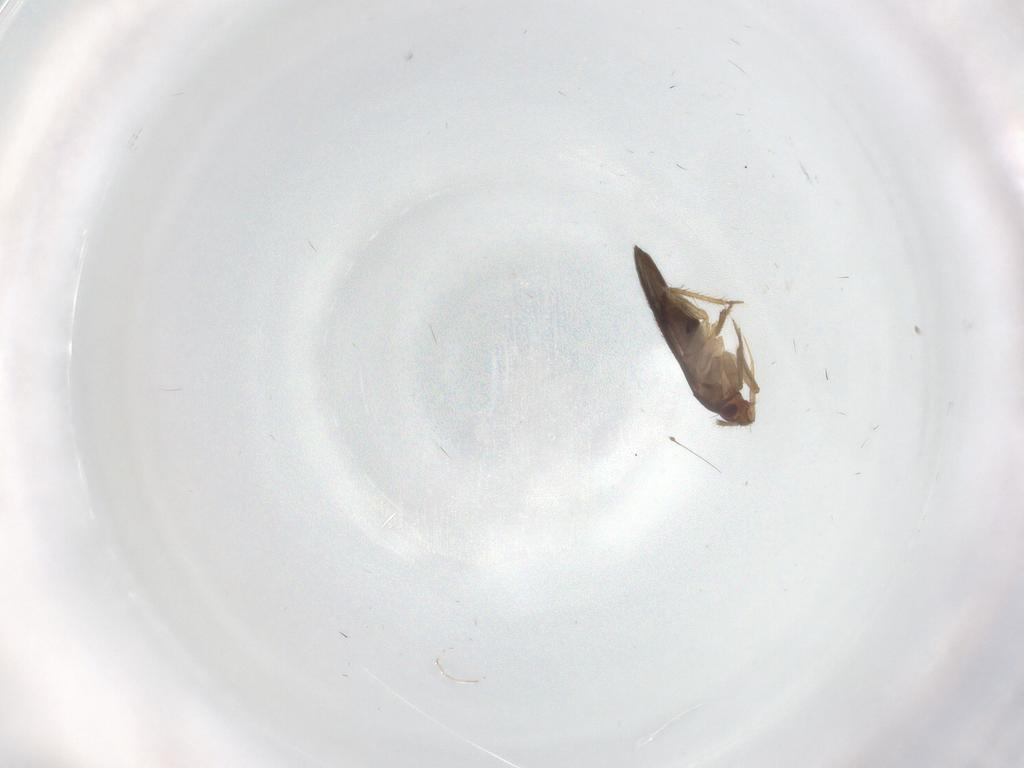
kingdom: Animalia
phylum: Arthropoda
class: Insecta
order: Hemiptera
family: Ceratocombidae
